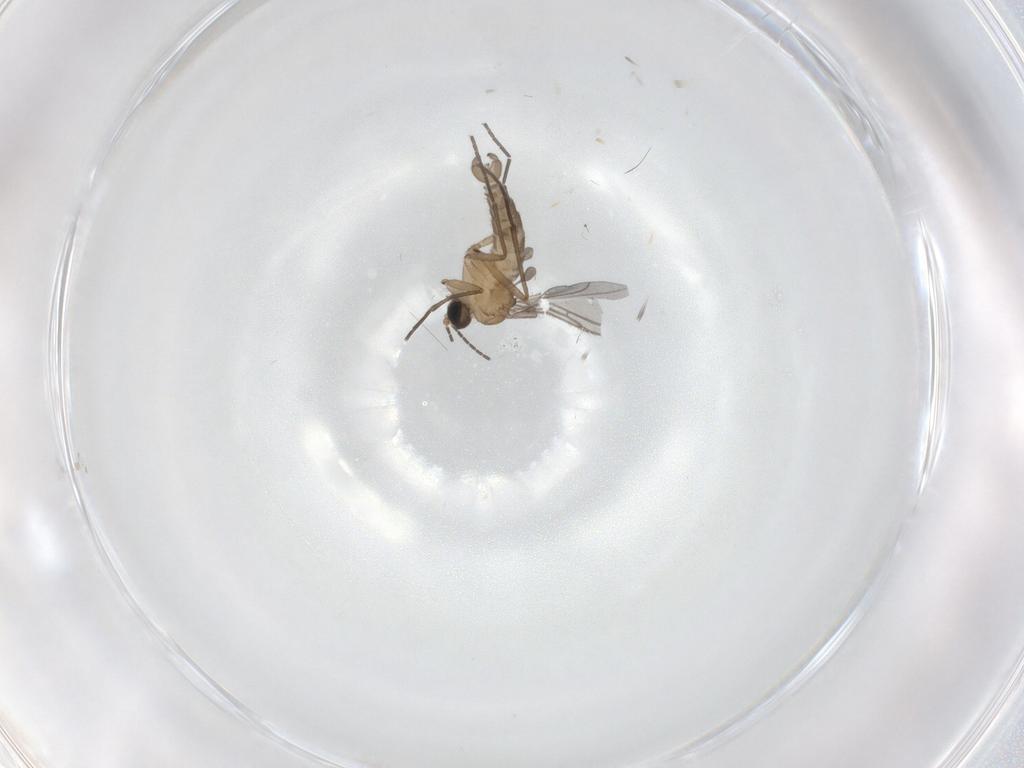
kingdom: Animalia
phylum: Arthropoda
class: Insecta
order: Diptera
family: Sciaridae
